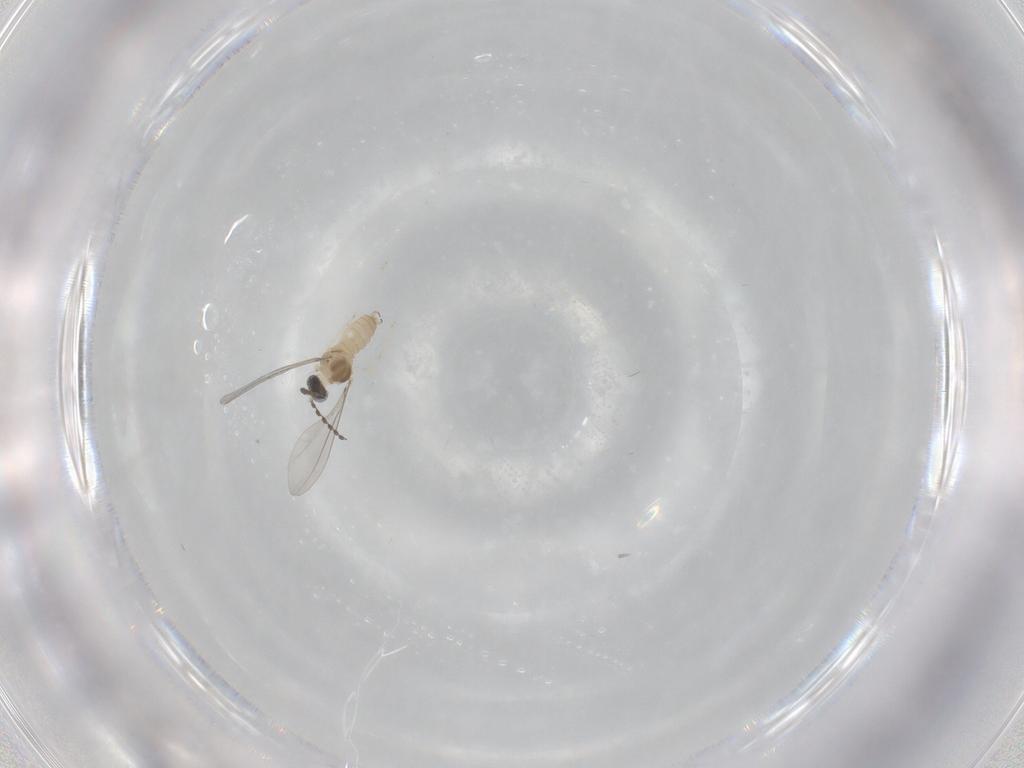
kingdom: Animalia
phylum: Arthropoda
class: Insecta
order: Diptera
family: Cecidomyiidae
